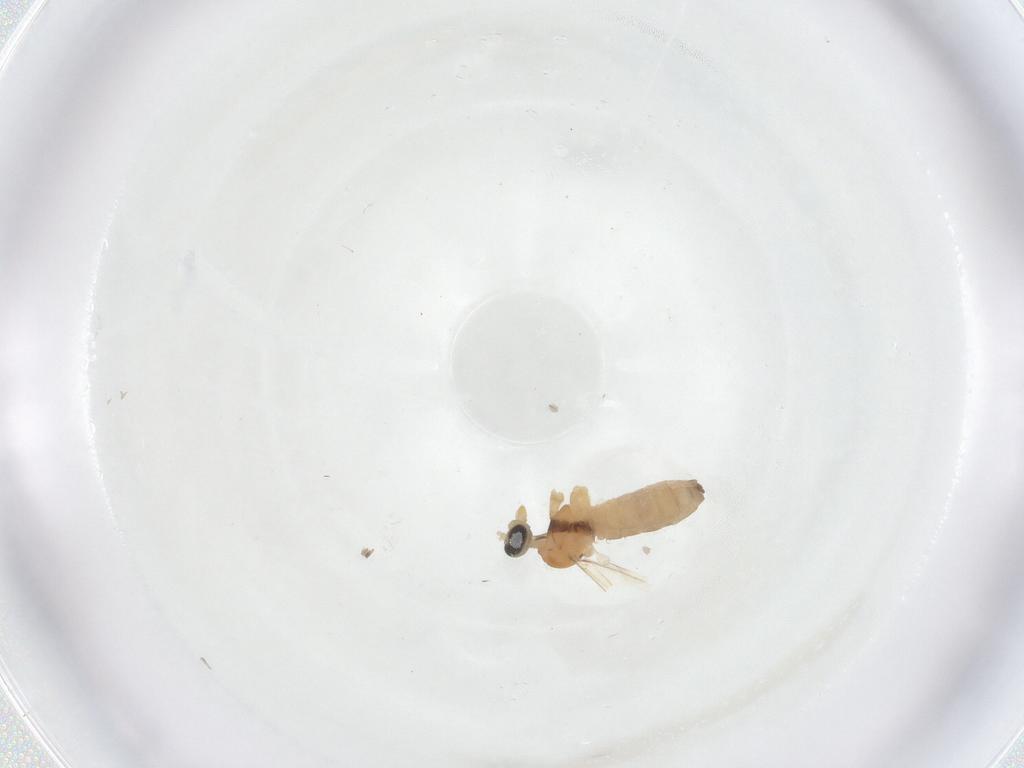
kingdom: Animalia
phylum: Arthropoda
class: Insecta
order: Diptera
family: Cecidomyiidae
